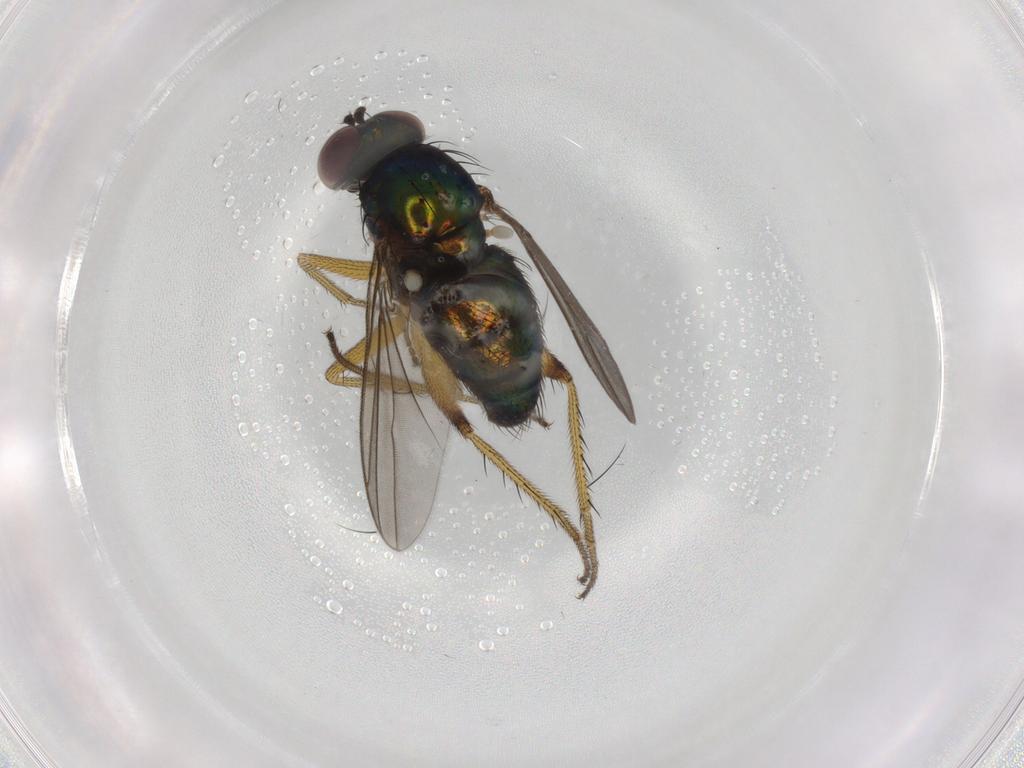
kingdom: Animalia
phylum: Arthropoda
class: Insecta
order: Diptera
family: Dolichopodidae
